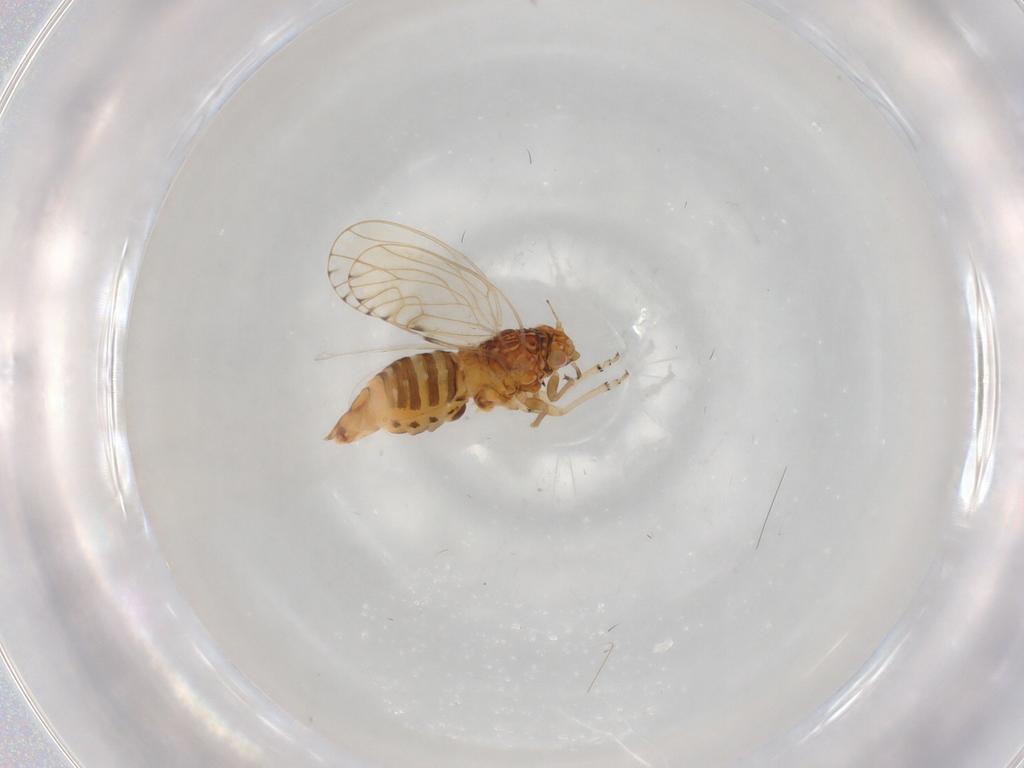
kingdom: Animalia
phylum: Arthropoda
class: Insecta
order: Hemiptera
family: Psylloidea_incertae_sedis
